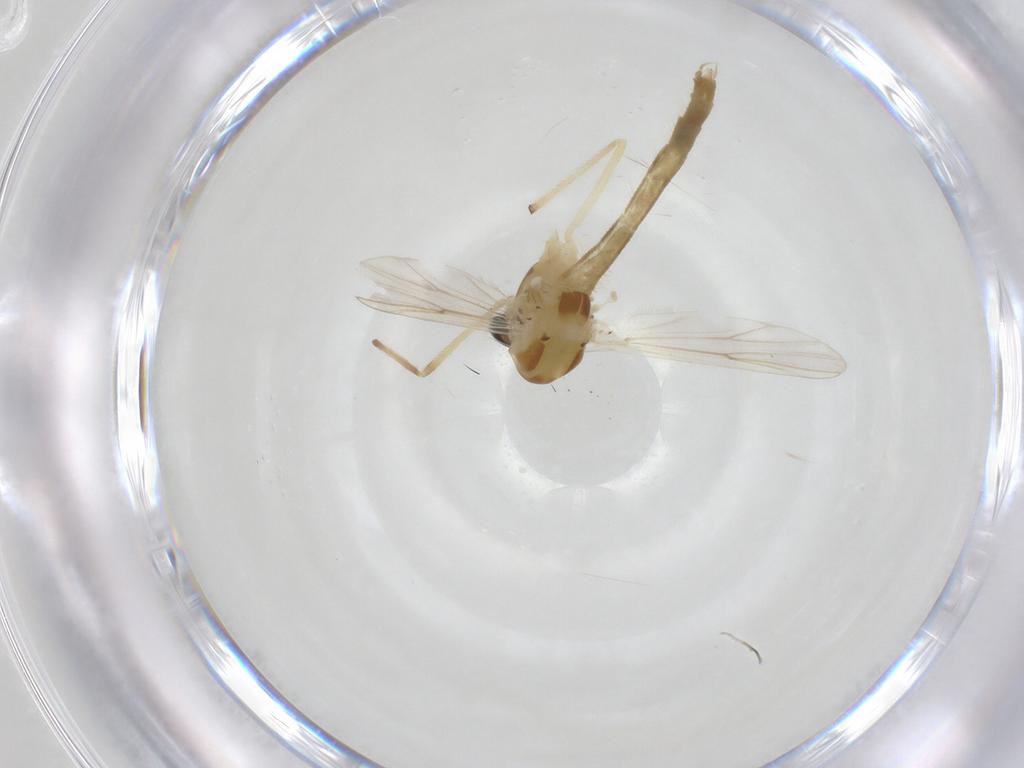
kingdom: Animalia
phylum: Arthropoda
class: Insecta
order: Diptera
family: Chironomidae
